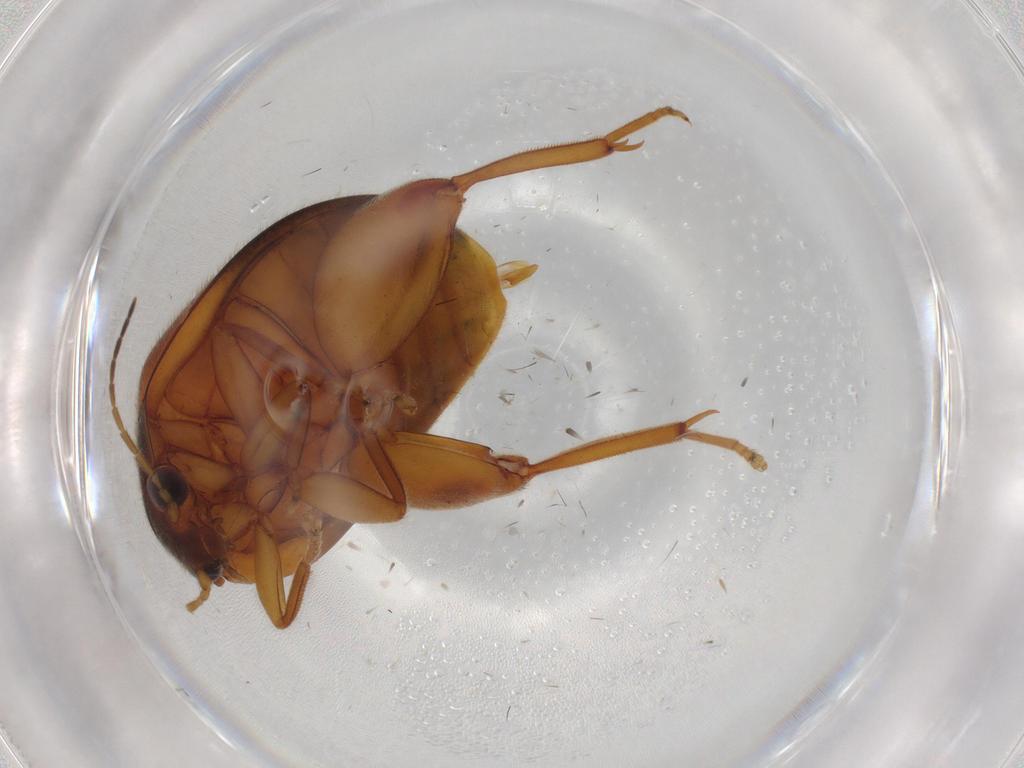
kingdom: Animalia
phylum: Arthropoda
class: Insecta
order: Coleoptera
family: Scirtidae
